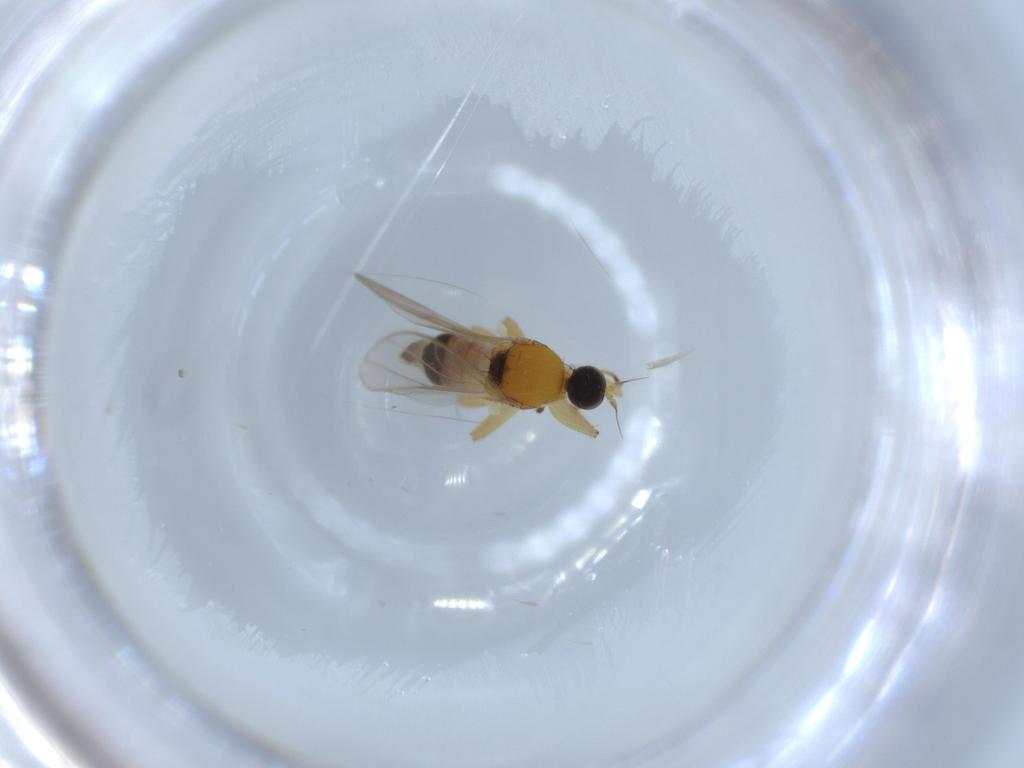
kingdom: Animalia
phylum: Arthropoda
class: Insecta
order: Diptera
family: Hybotidae
